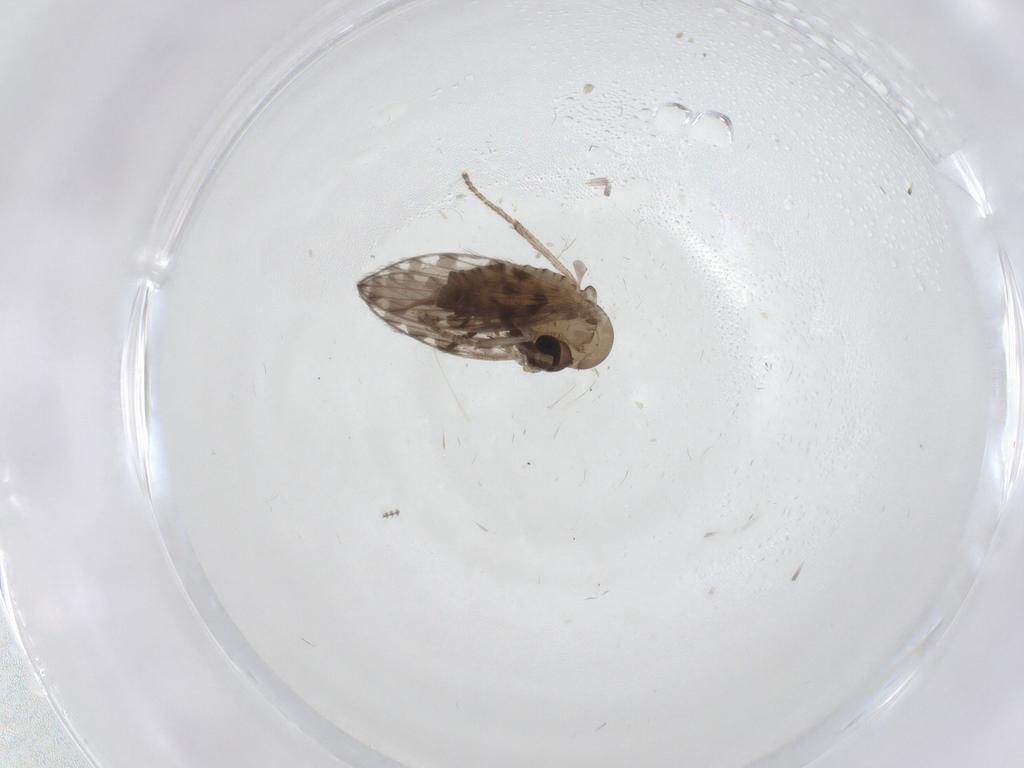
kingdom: Animalia
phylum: Arthropoda
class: Insecta
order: Diptera
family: Psychodidae
